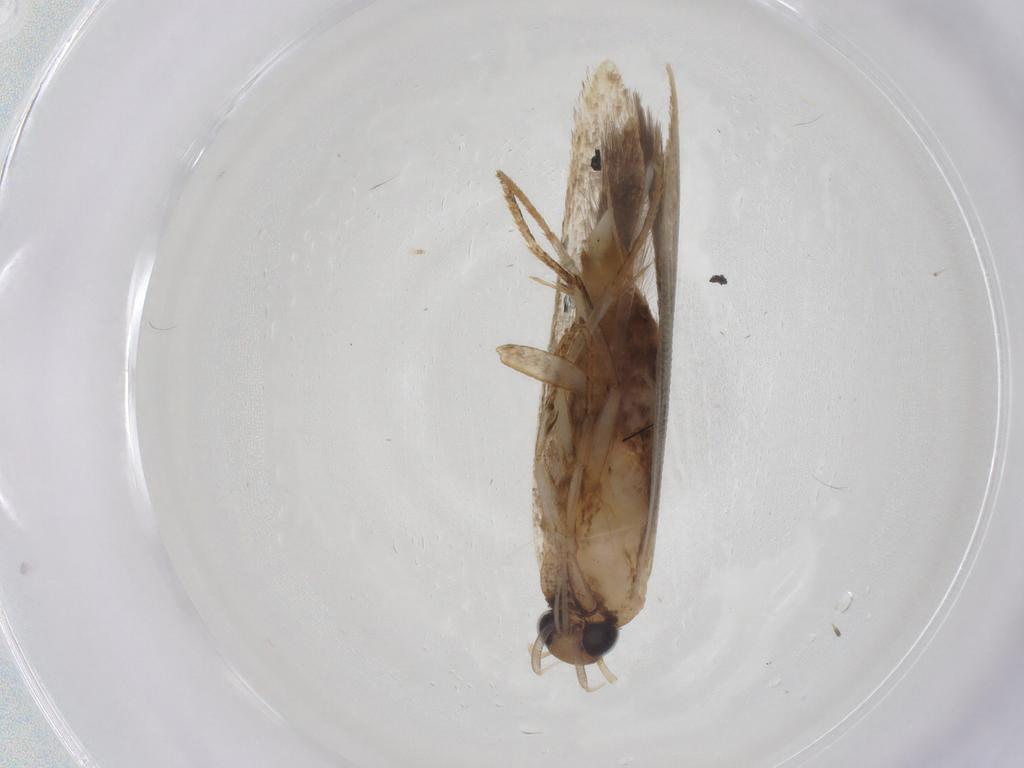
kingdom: Animalia
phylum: Arthropoda
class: Insecta
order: Lepidoptera
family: Gelechiidae
